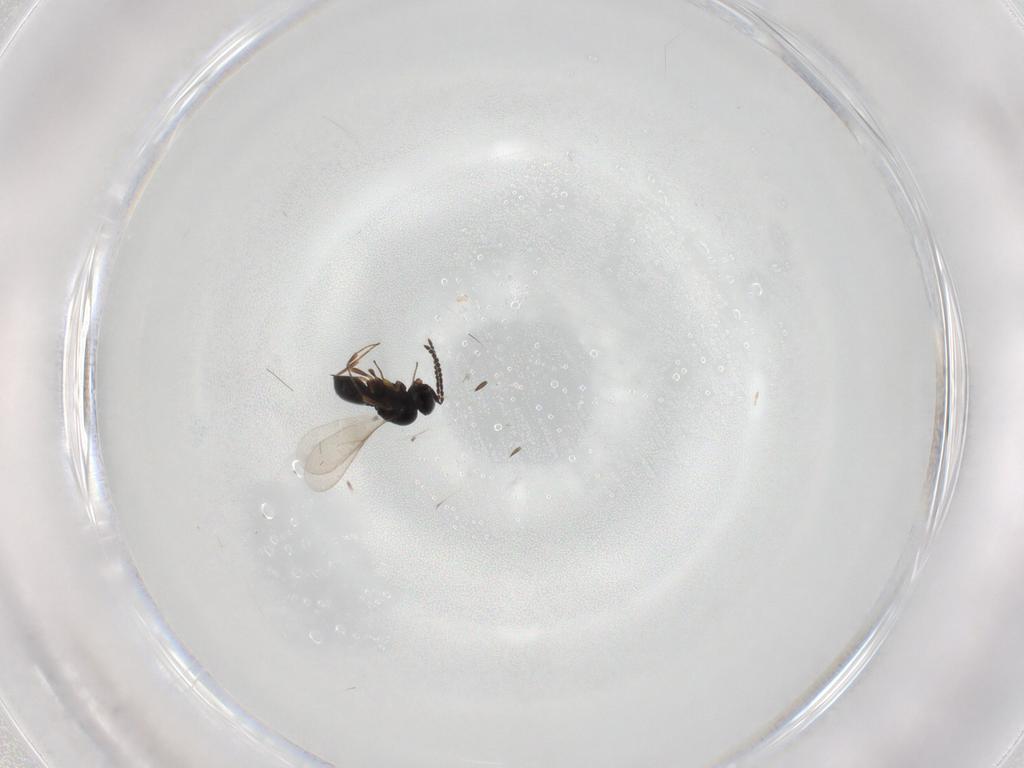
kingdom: Animalia
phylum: Arthropoda
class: Insecta
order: Hymenoptera
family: Scelionidae
